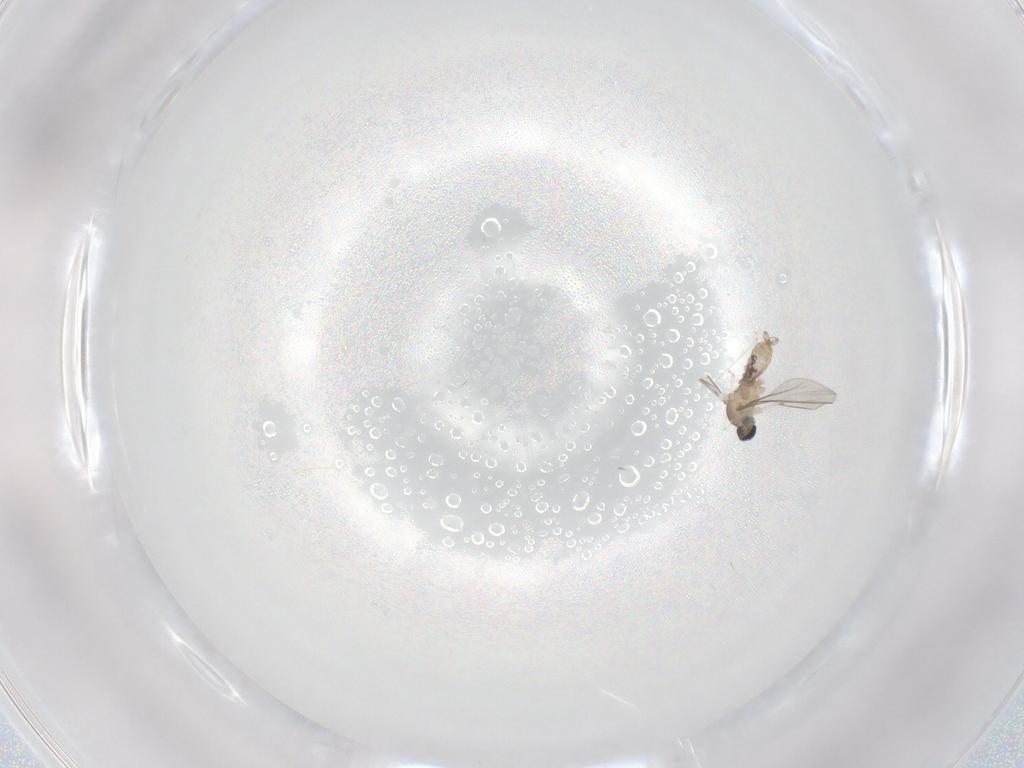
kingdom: Animalia
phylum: Arthropoda
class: Insecta
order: Diptera
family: Cecidomyiidae
